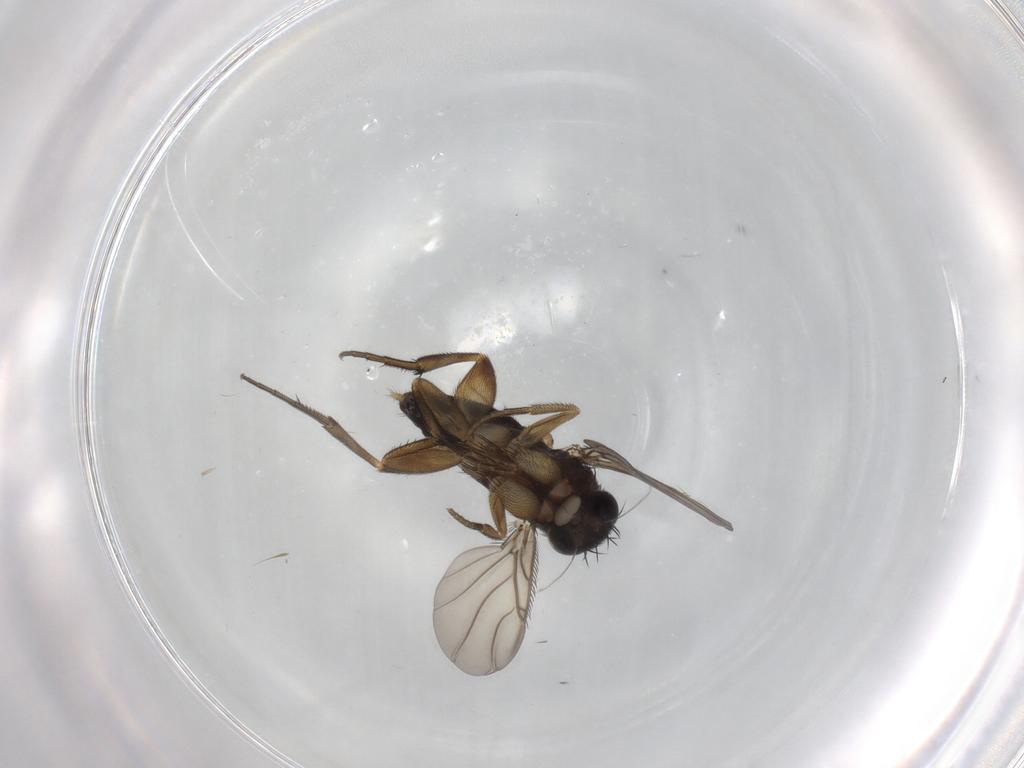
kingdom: Animalia
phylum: Arthropoda
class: Insecta
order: Diptera
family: Phoridae
